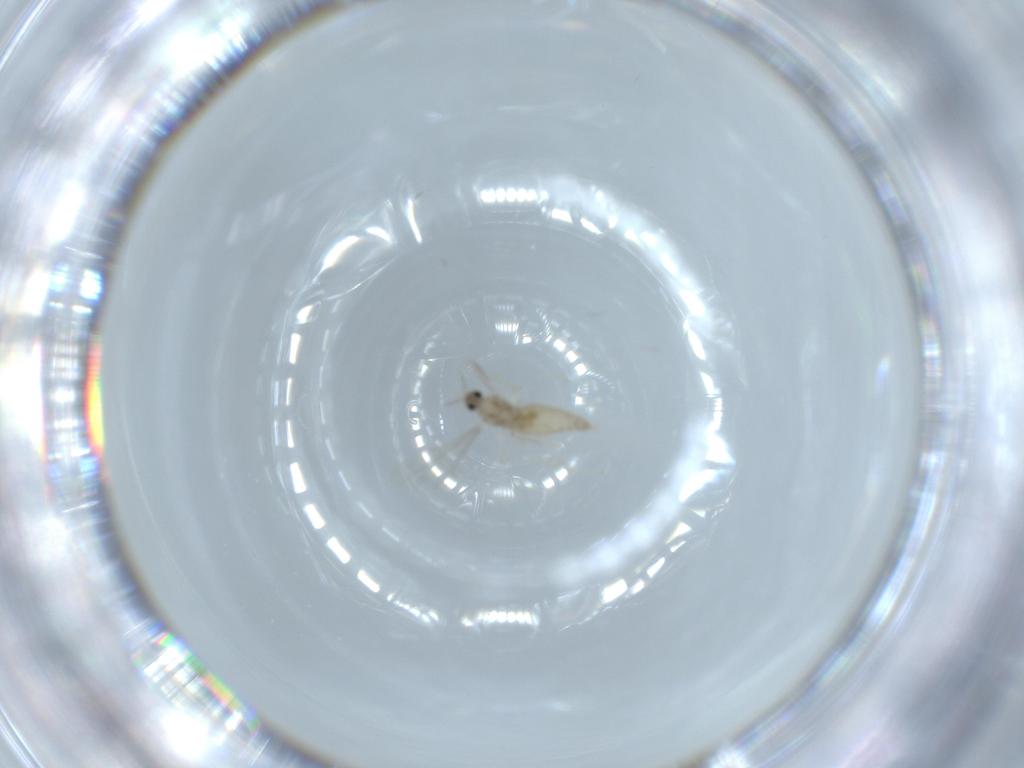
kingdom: Animalia
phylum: Arthropoda
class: Insecta
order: Diptera
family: Cecidomyiidae
